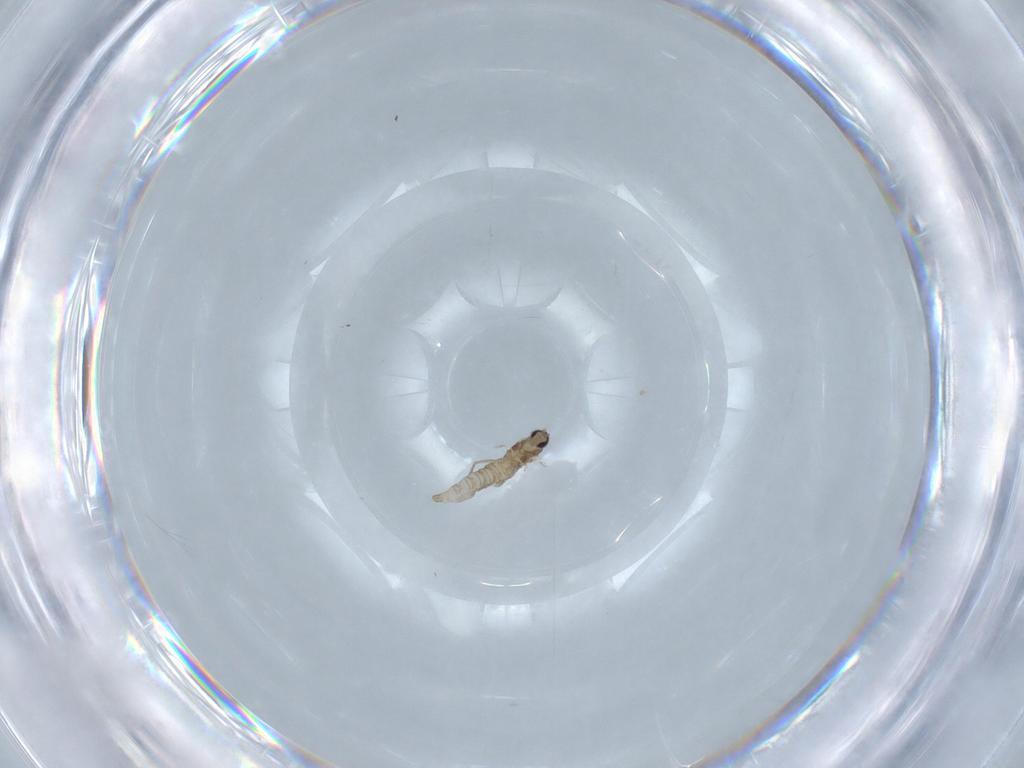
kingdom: Animalia
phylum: Arthropoda
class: Insecta
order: Diptera
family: Cecidomyiidae
